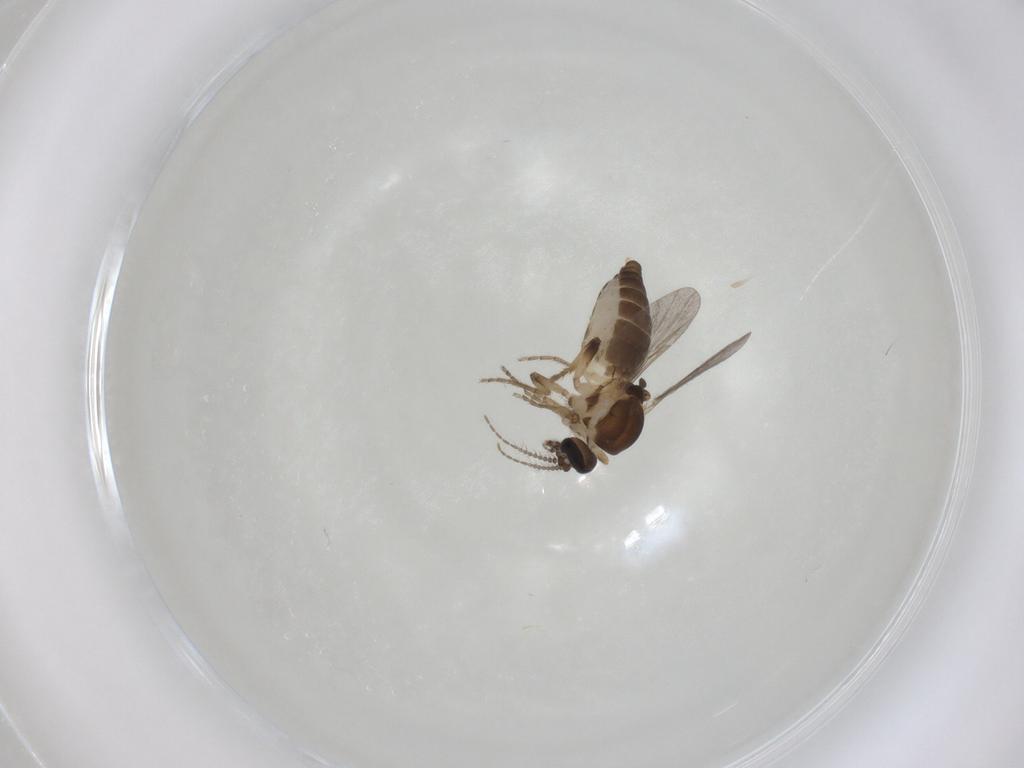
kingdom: Animalia
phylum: Arthropoda
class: Insecta
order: Diptera
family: Ceratopogonidae
